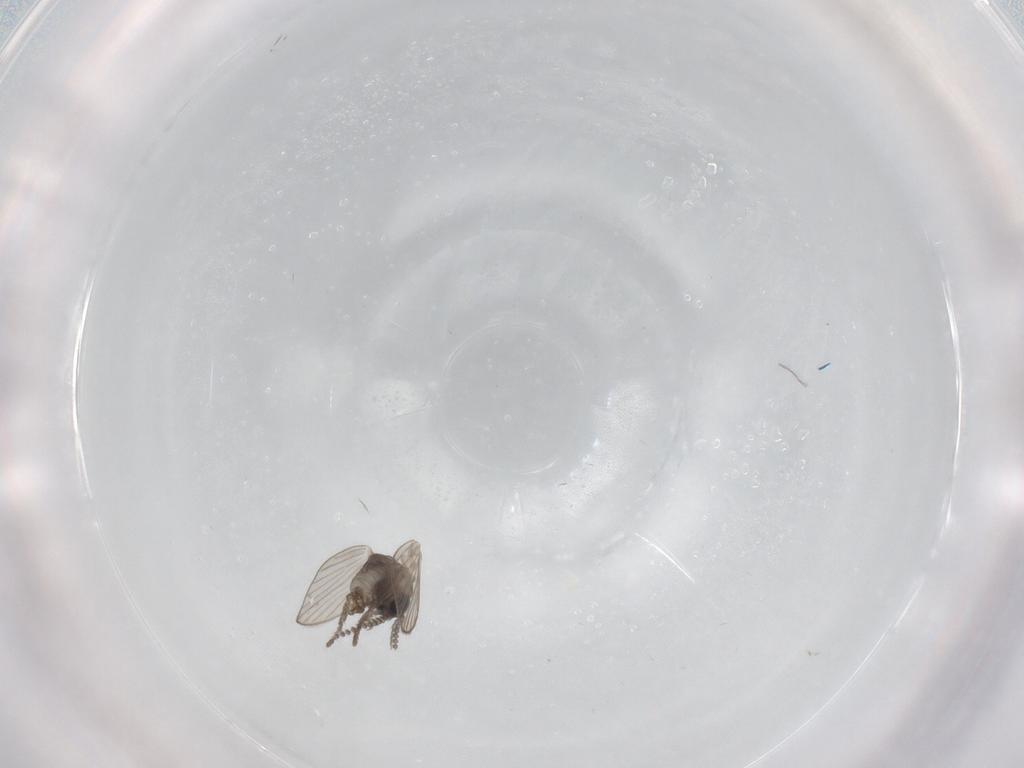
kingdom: Animalia
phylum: Arthropoda
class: Insecta
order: Diptera
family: Psychodidae
